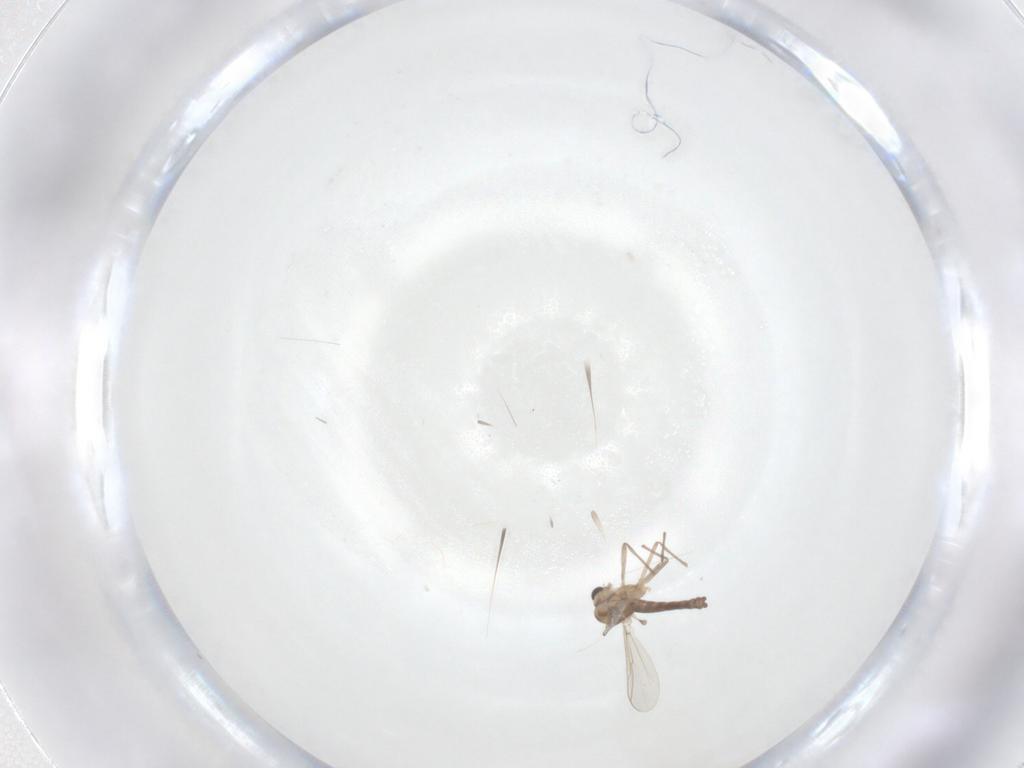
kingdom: Animalia
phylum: Arthropoda
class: Insecta
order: Diptera
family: Chironomidae
